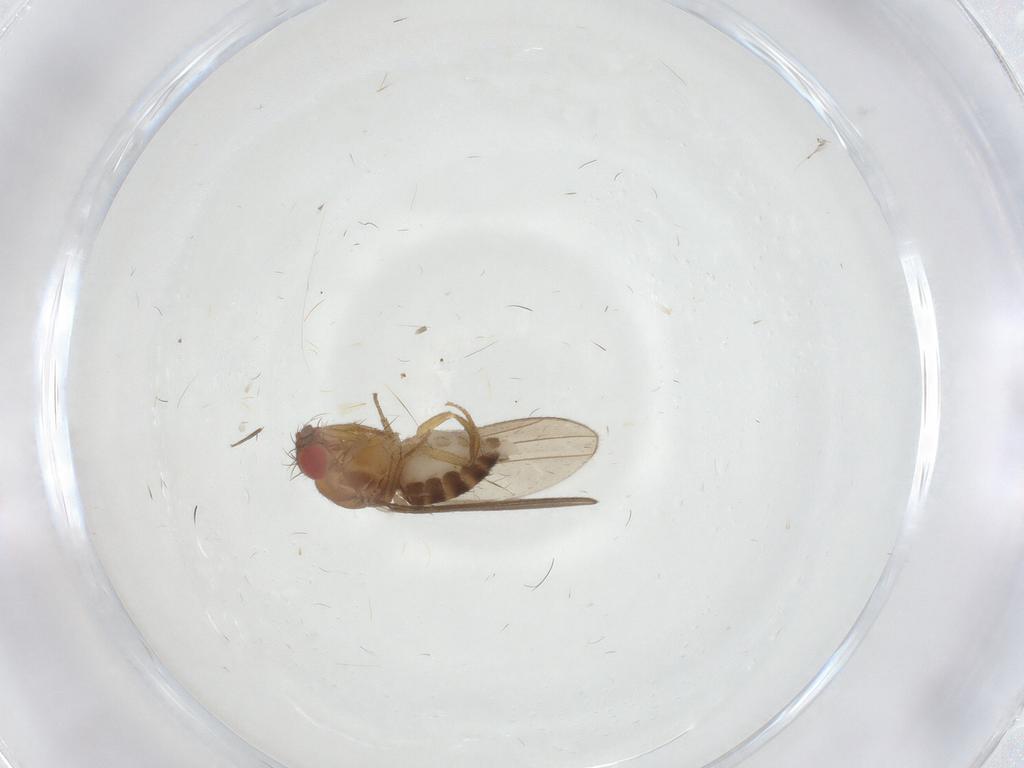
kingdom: Animalia
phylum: Arthropoda
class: Insecta
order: Diptera
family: Drosophilidae
